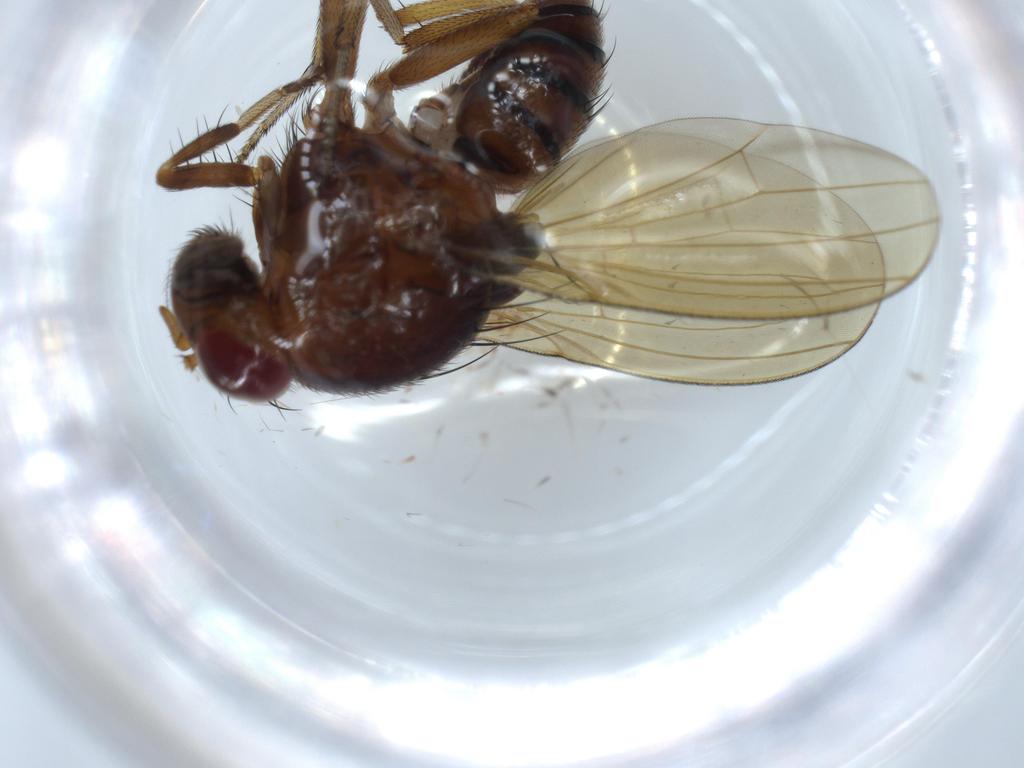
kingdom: Animalia
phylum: Arthropoda
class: Insecta
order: Diptera
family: Lauxaniidae
